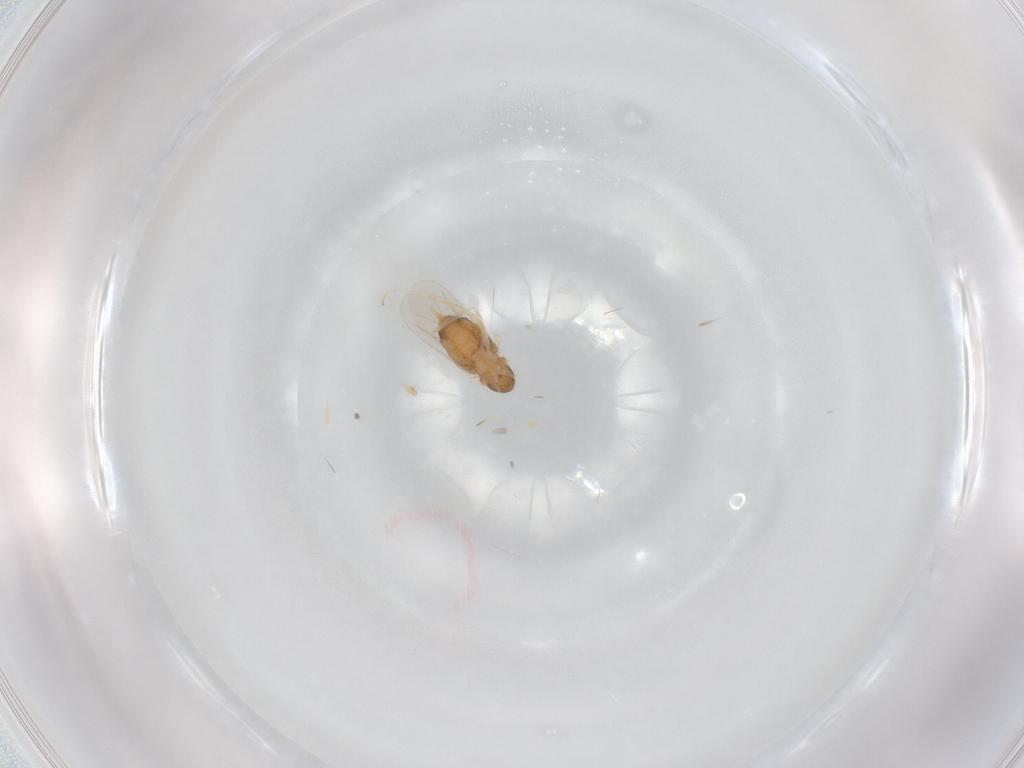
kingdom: Animalia
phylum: Arthropoda
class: Insecta
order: Diptera
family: Cecidomyiidae
